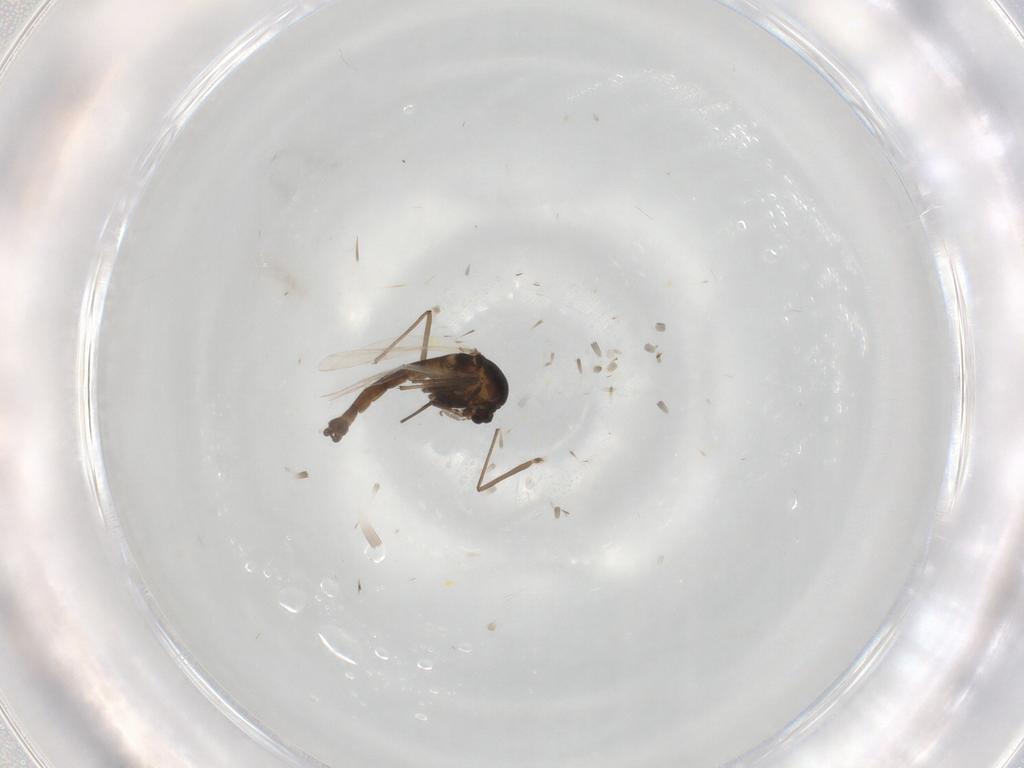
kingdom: Animalia
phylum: Arthropoda
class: Insecta
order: Diptera
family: Chironomidae
